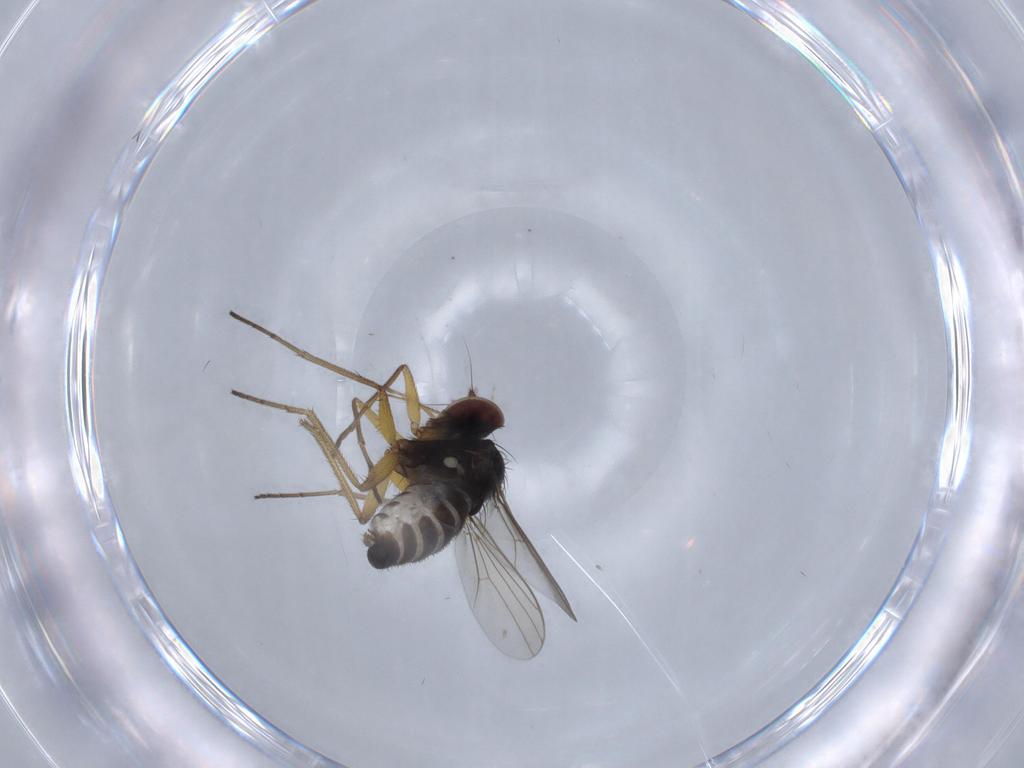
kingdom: Animalia
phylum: Arthropoda
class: Insecta
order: Diptera
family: Dolichopodidae
